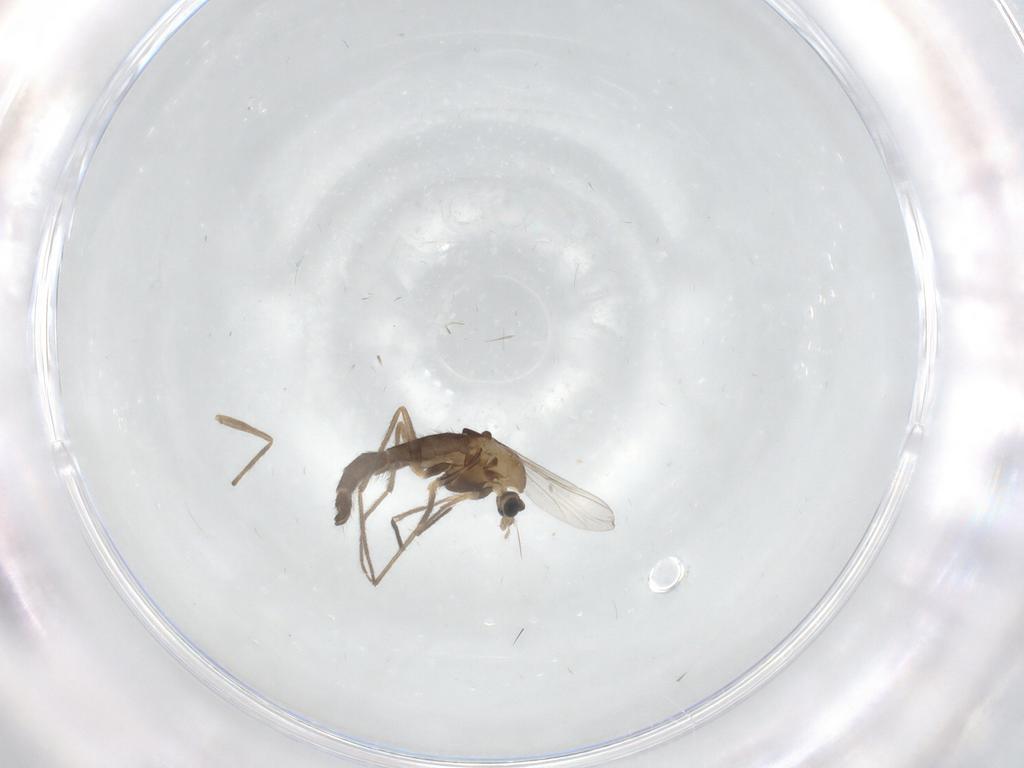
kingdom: Animalia
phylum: Arthropoda
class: Insecta
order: Diptera
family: Chironomidae
